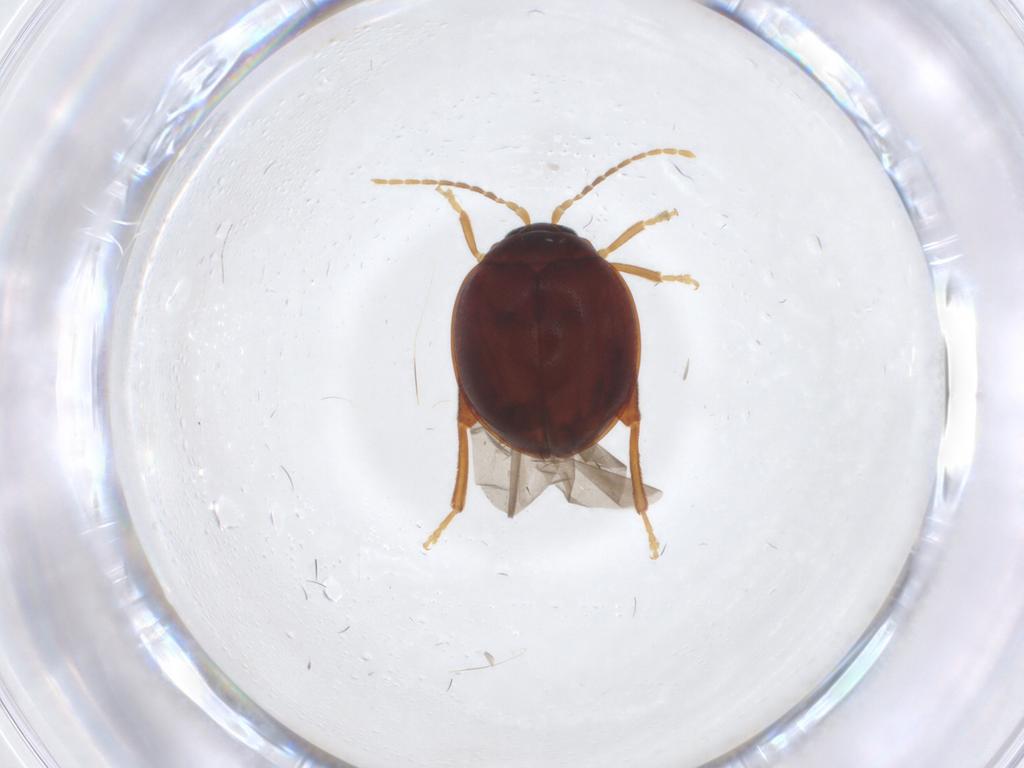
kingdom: Animalia
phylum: Arthropoda
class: Insecta
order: Coleoptera
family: Chrysomelidae
